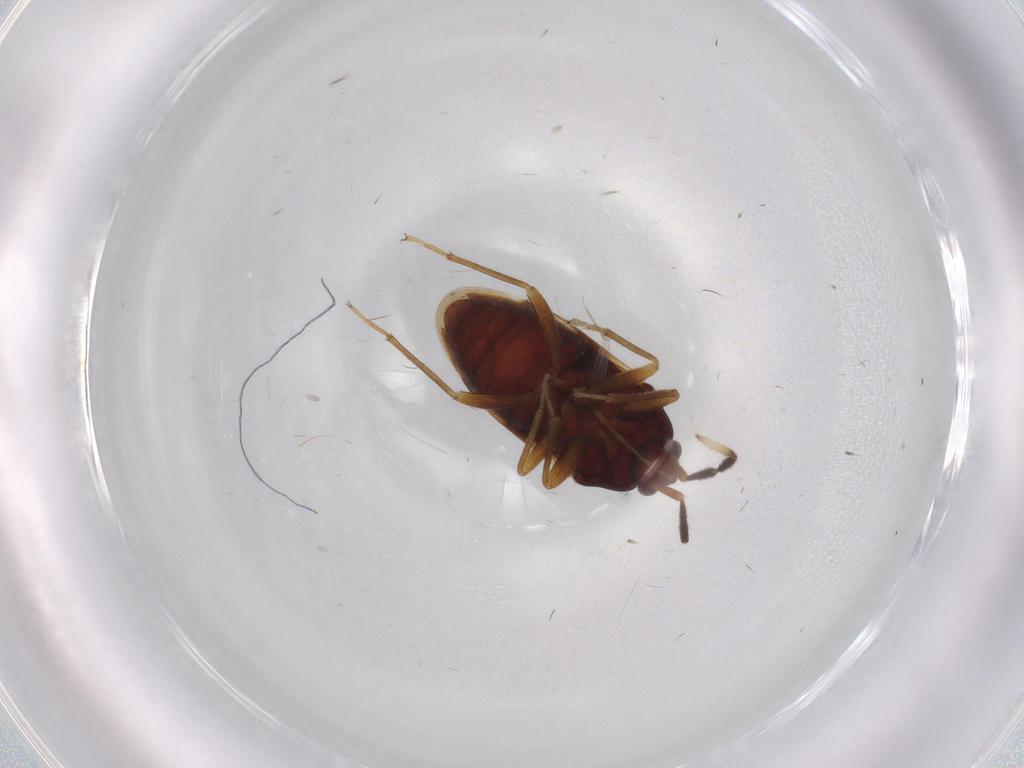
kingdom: Animalia
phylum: Arthropoda
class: Insecta
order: Hemiptera
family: Rhyparochromidae
